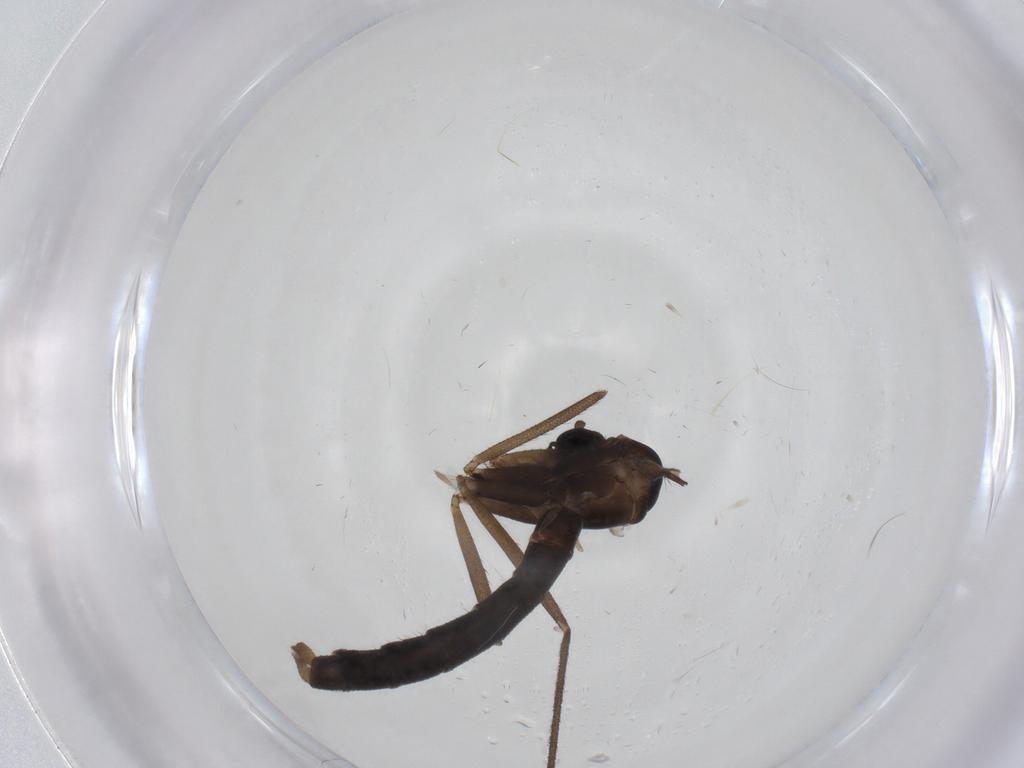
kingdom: Animalia
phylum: Arthropoda
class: Insecta
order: Diptera
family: Tachinidae
